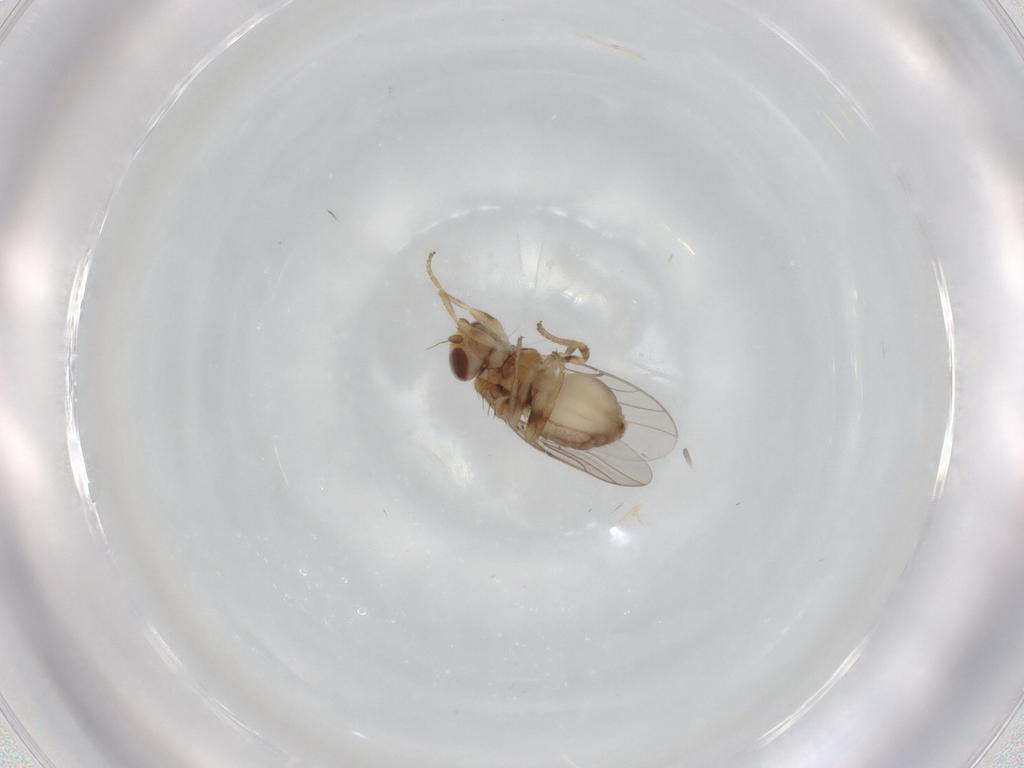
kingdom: Animalia
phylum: Arthropoda
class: Insecta
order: Diptera
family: Chloropidae
